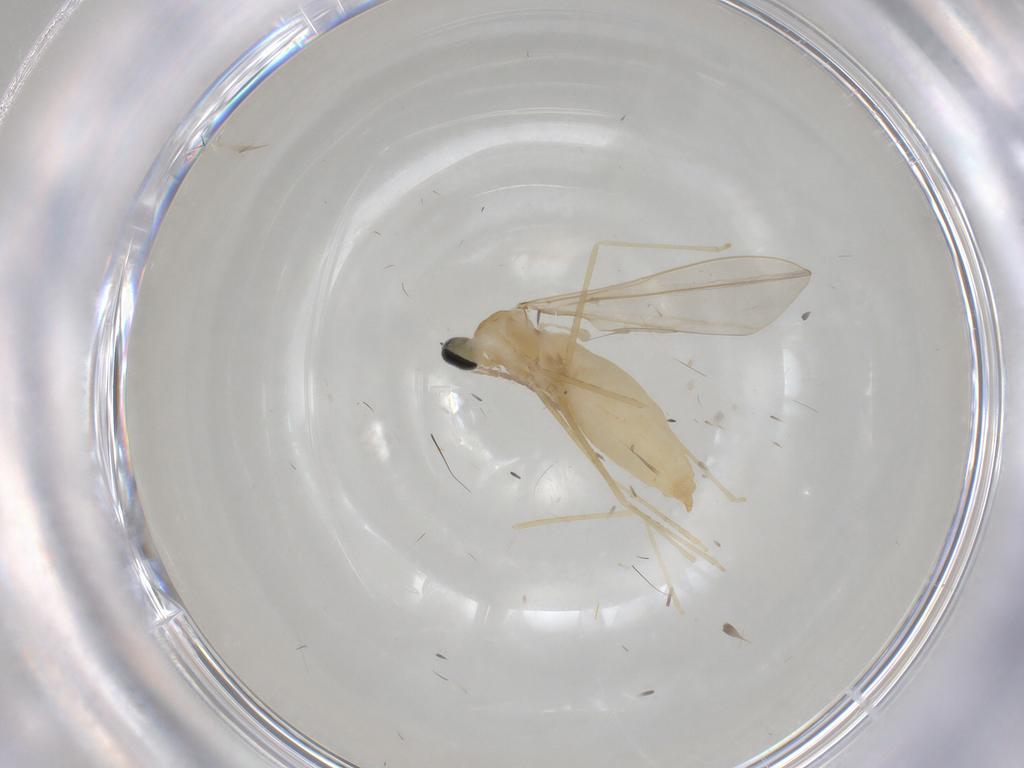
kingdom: Animalia
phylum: Arthropoda
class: Insecta
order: Diptera
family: Cecidomyiidae
